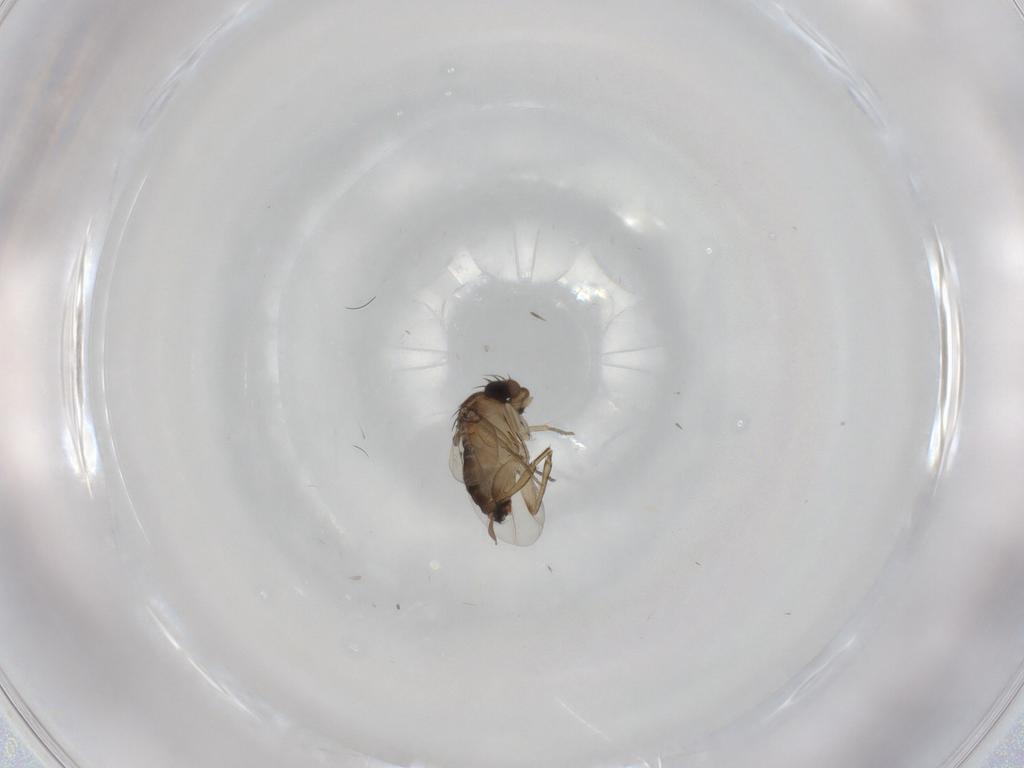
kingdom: Animalia
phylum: Arthropoda
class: Insecta
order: Diptera
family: Phoridae
